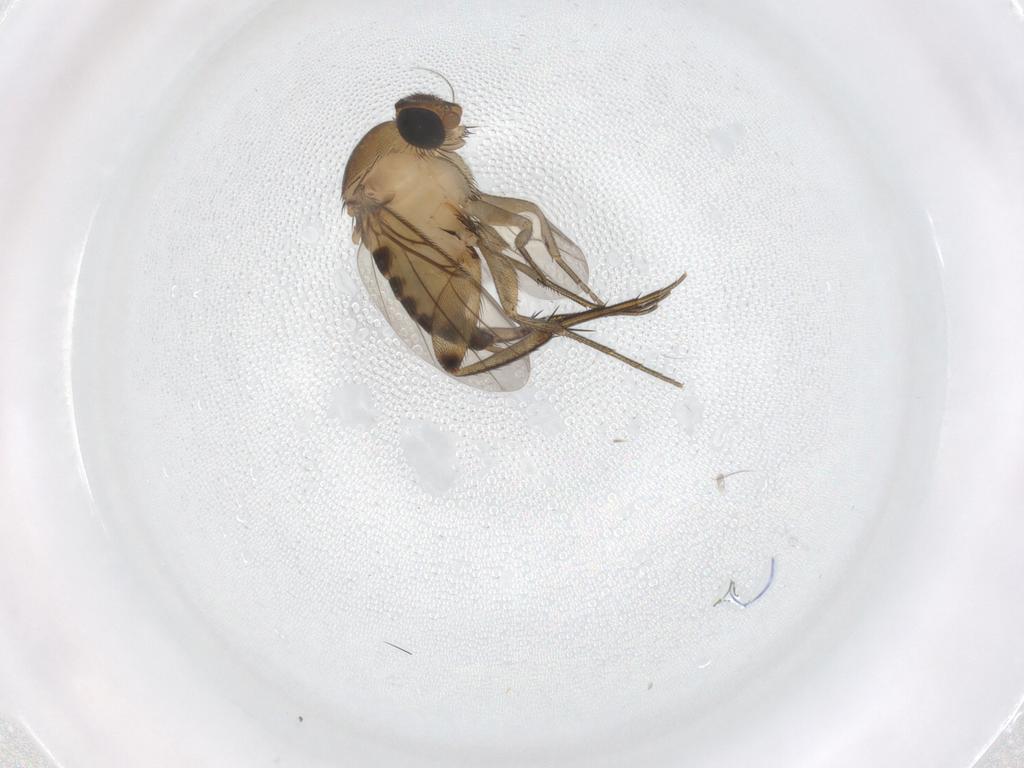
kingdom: Animalia
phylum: Arthropoda
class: Insecta
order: Diptera
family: Phoridae
